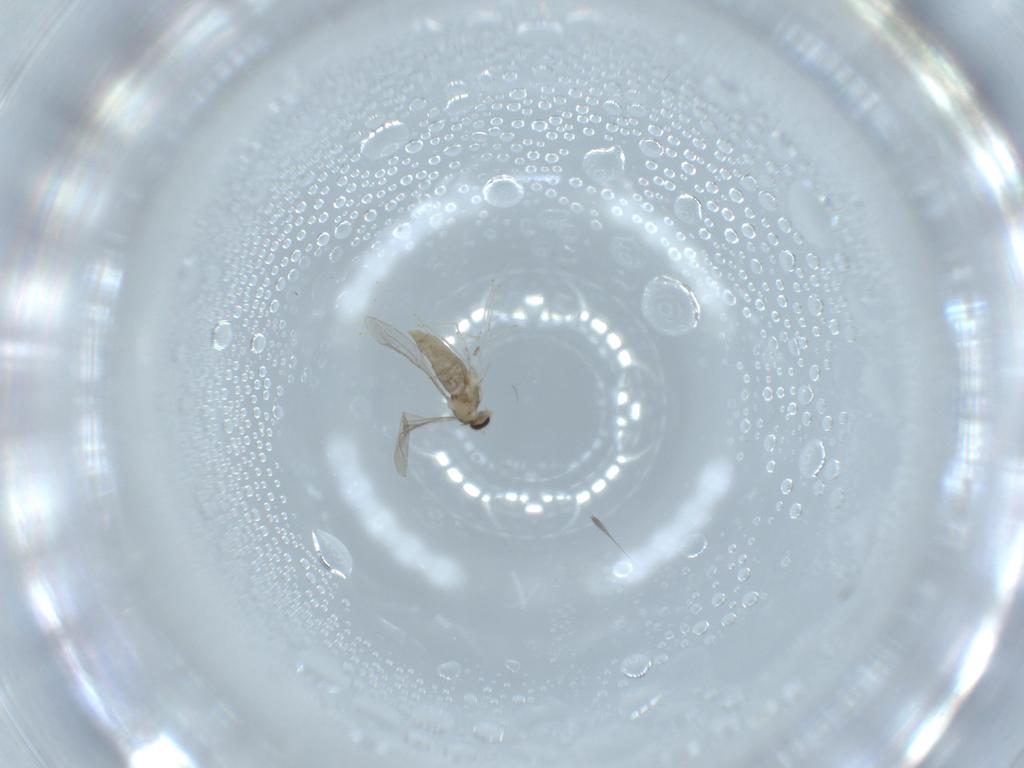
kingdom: Animalia
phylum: Arthropoda
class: Insecta
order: Diptera
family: Cecidomyiidae
